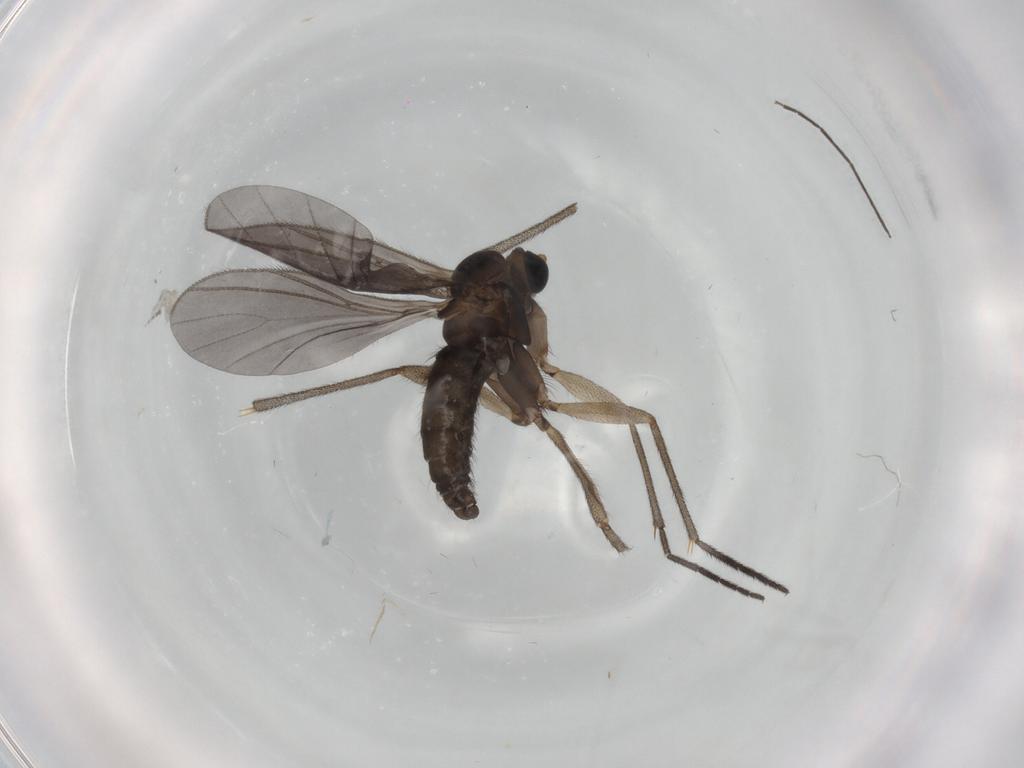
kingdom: Animalia
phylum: Arthropoda
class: Insecta
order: Diptera
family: Sciaridae
